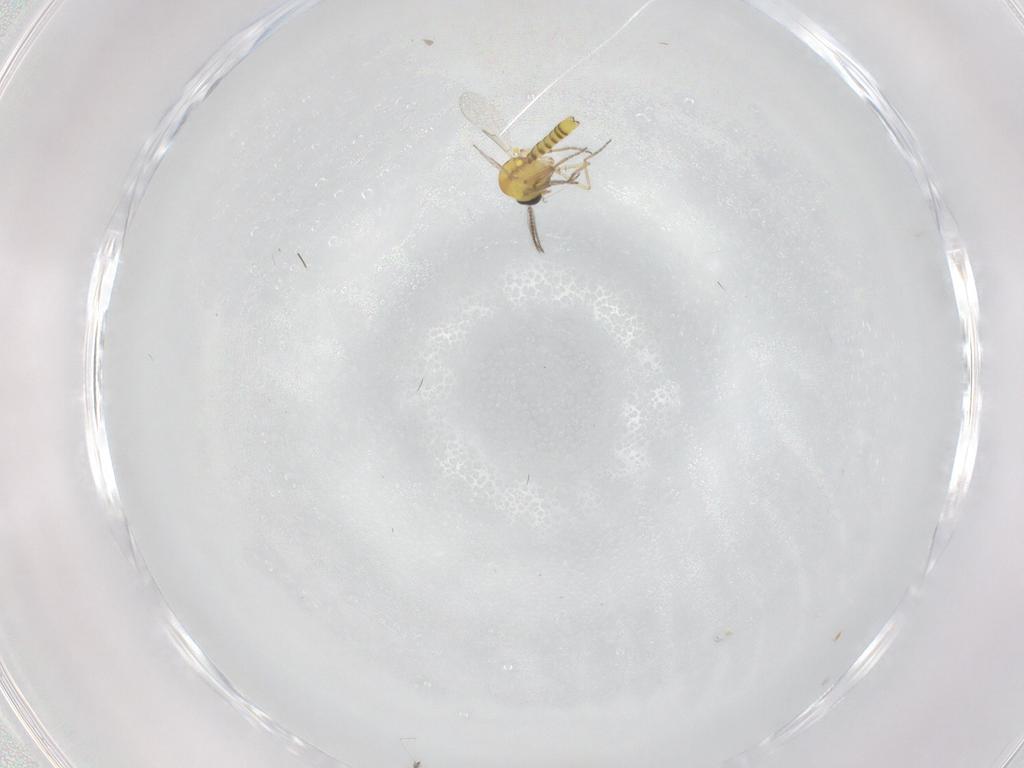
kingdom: Animalia
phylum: Arthropoda
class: Insecta
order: Diptera
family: Ceratopogonidae
